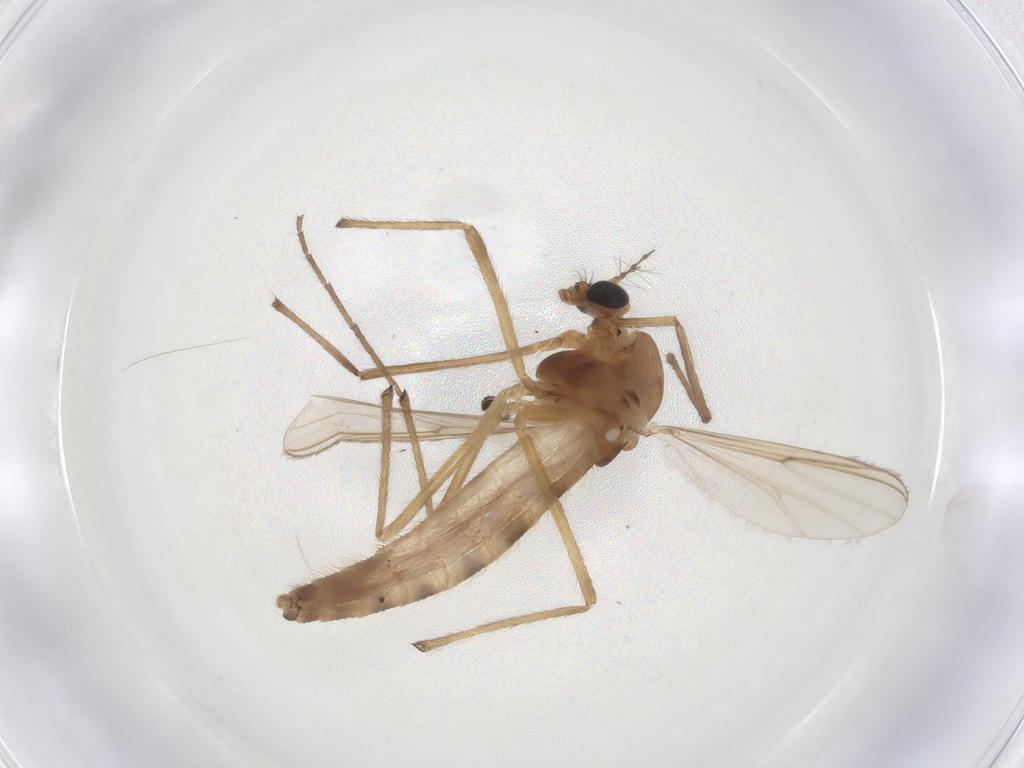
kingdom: Animalia
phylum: Arthropoda
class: Insecta
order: Diptera
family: Chironomidae
